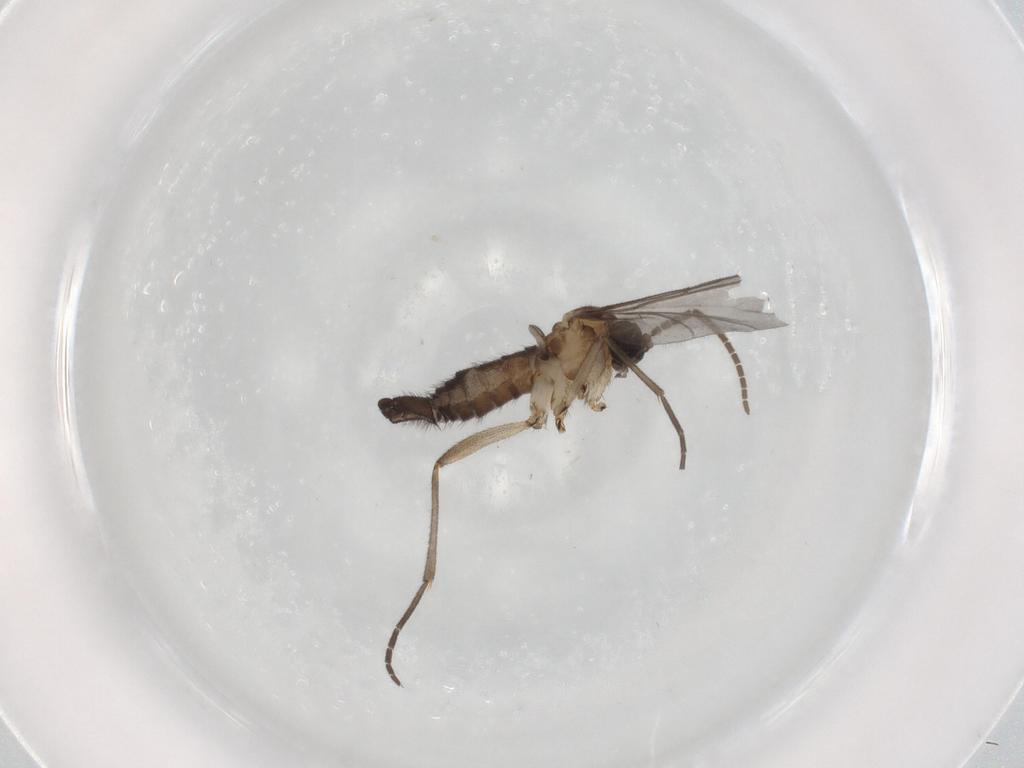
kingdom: Animalia
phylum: Arthropoda
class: Insecta
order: Diptera
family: Sciaridae
